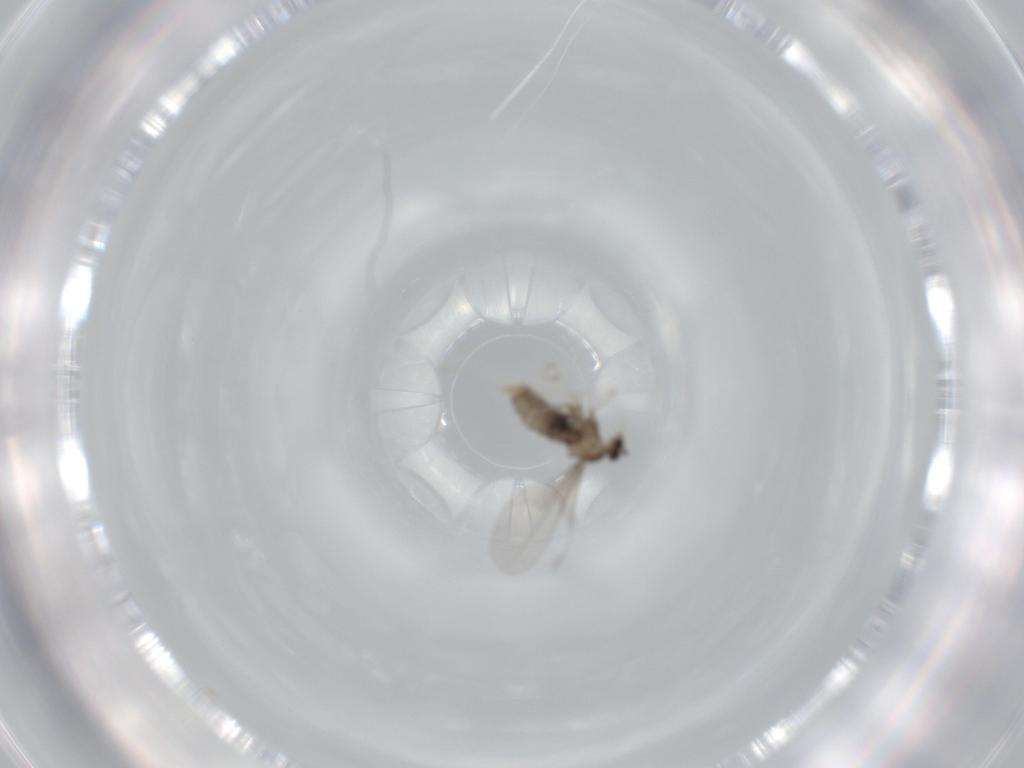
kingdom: Animalia
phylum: Arthropoda
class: Insecta
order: Diptera
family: Cecidomyiidae
